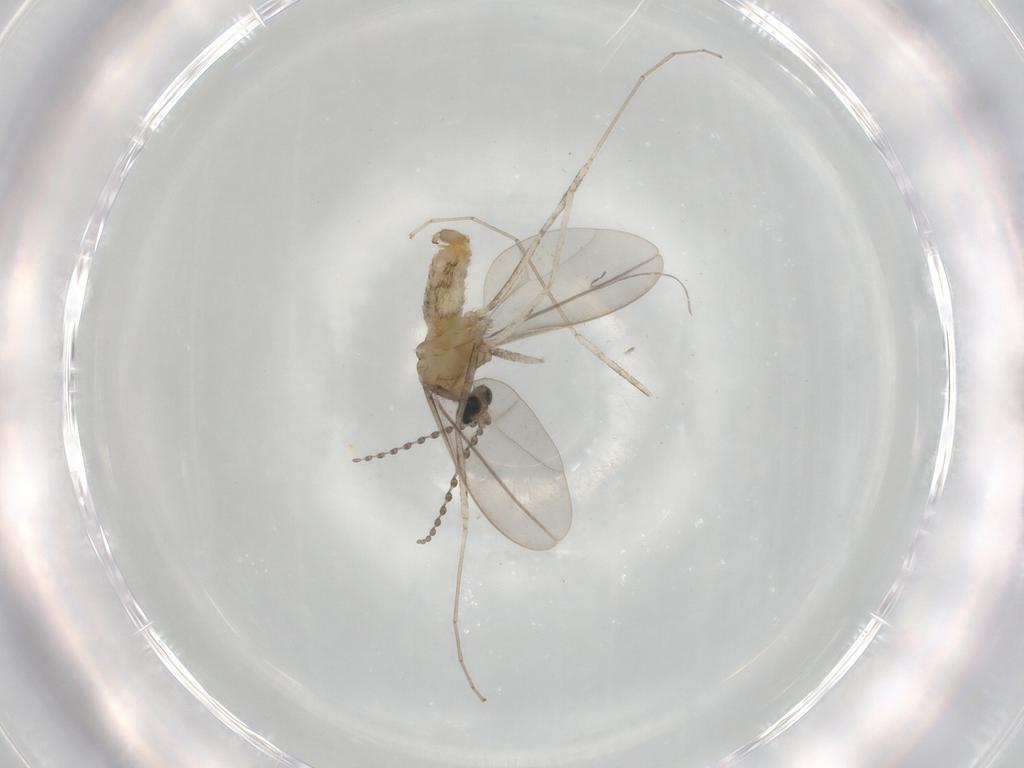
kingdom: Animalia
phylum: Arthropoda
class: Insecta
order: Diptera
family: Cecidomyiidae
